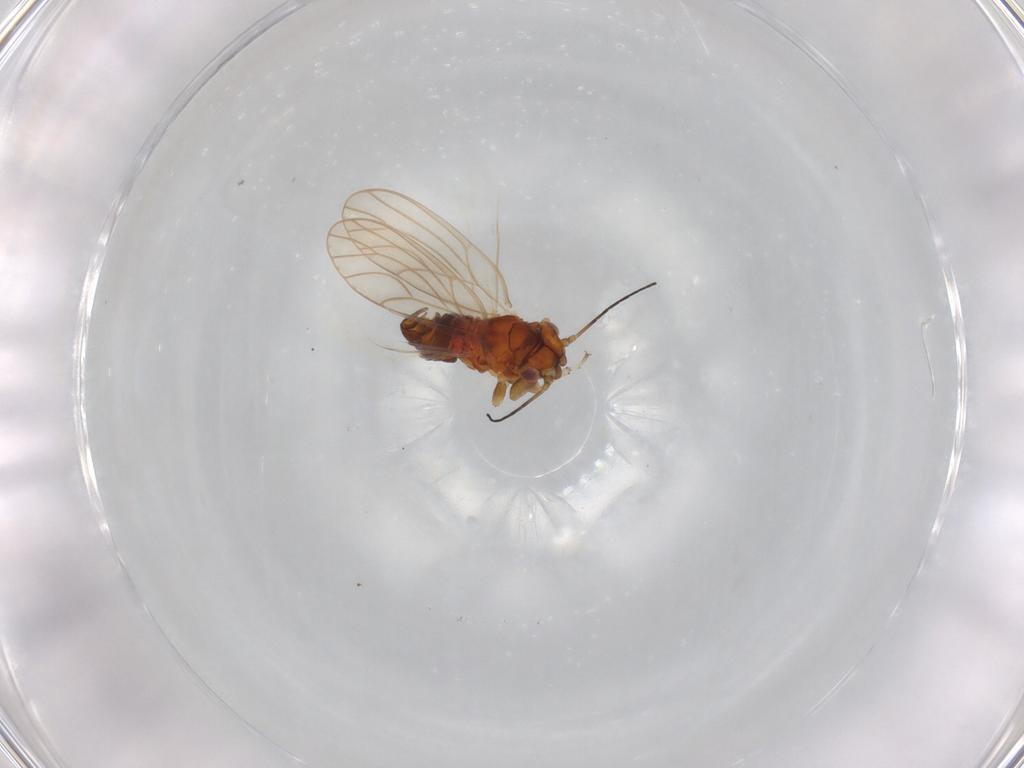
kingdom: Animalia
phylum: Arthropoda
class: Insecta
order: Hemiptera
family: Psylloidea_incertae_sedis
